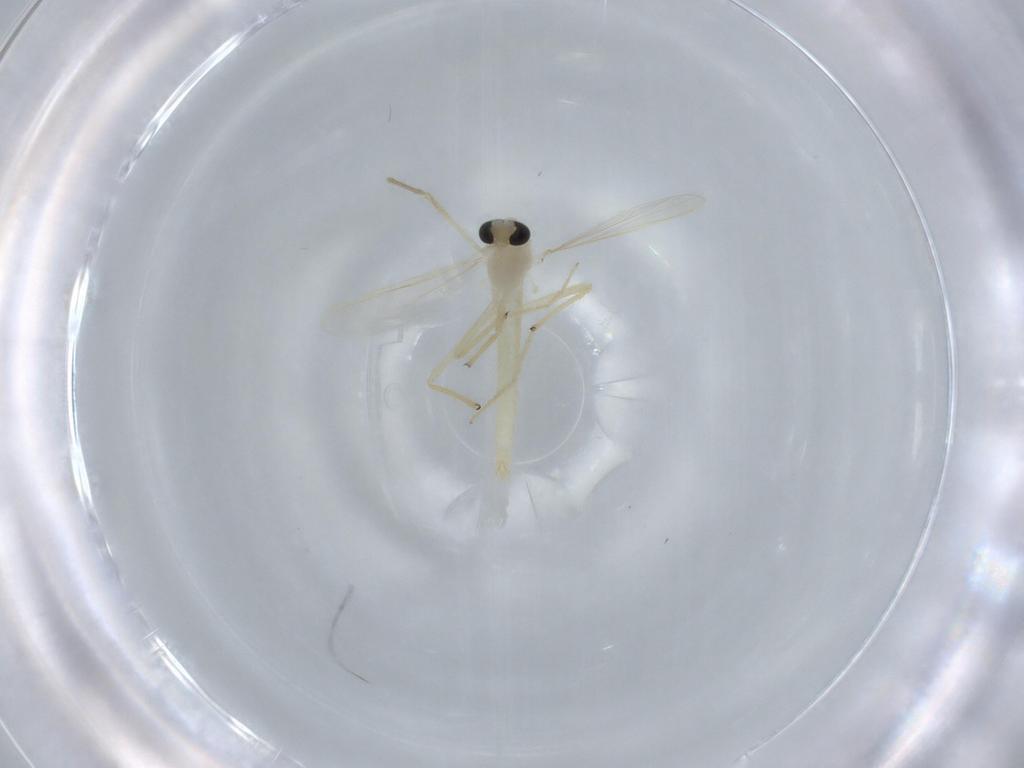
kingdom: Animalia
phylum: Arthropoda
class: Insecta
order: Diptera
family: Chironomidae
